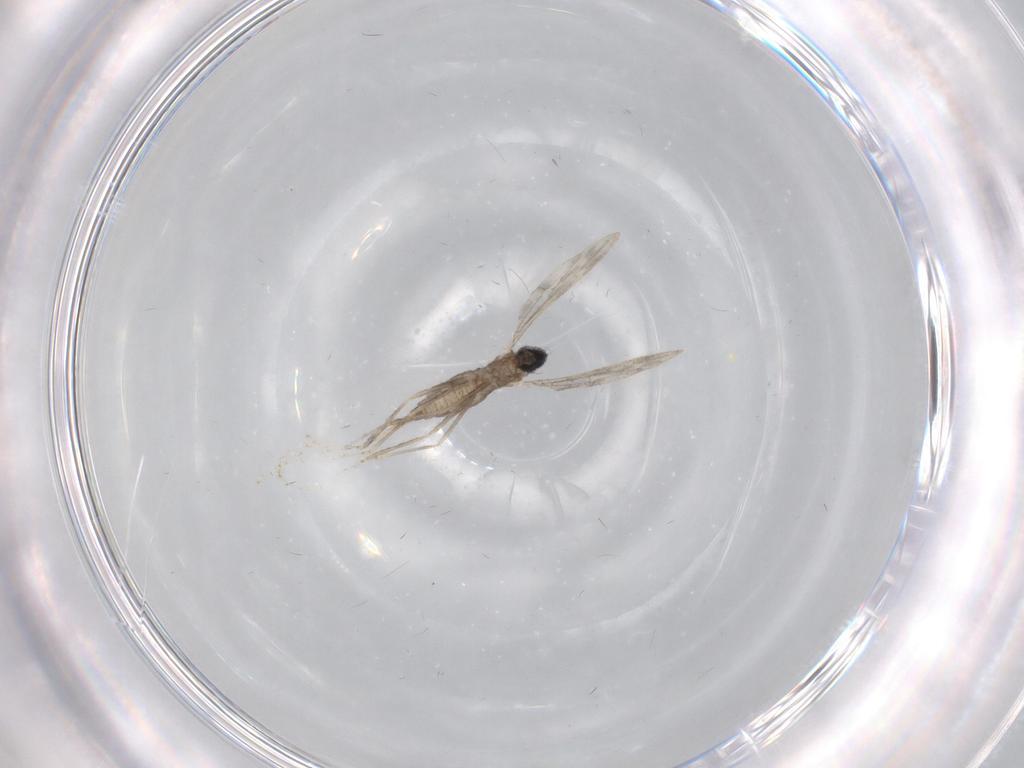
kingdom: Animalia
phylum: Arthropoda
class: Insecta
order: Diptera
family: Cecidomyiidae
